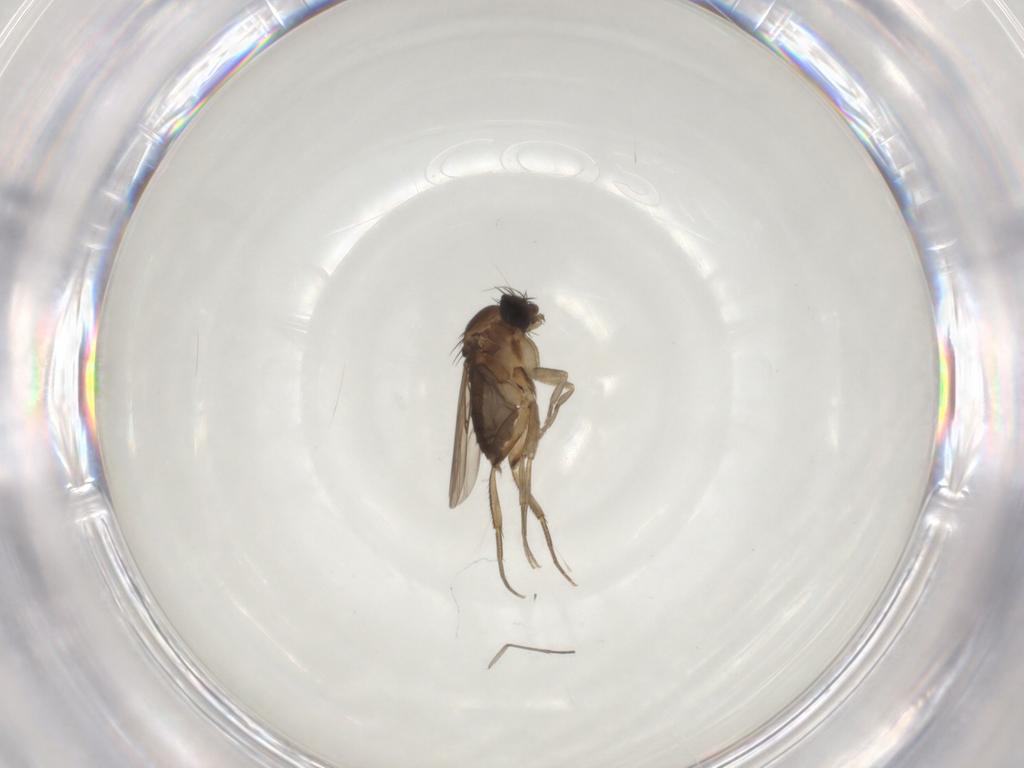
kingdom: Animalia
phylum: Arthropoda
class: Insecta
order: Diptera
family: Phoridae
